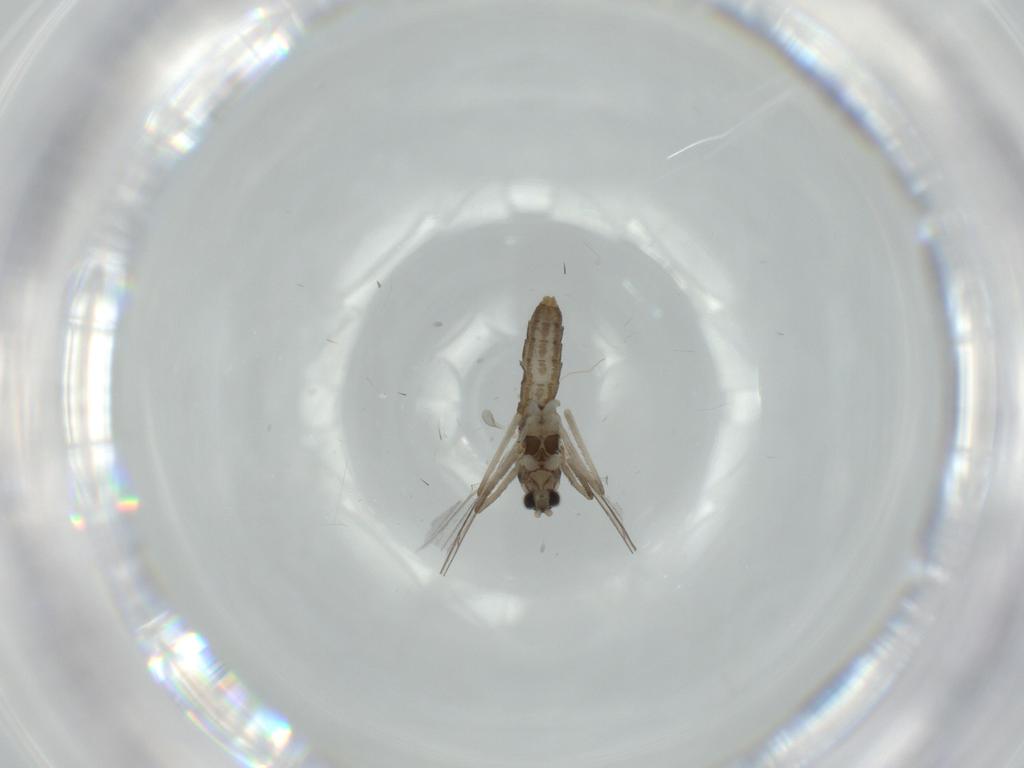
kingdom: Animalia
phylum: Arthropoda
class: Insecta
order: Diptera
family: Cecidomyiidae
